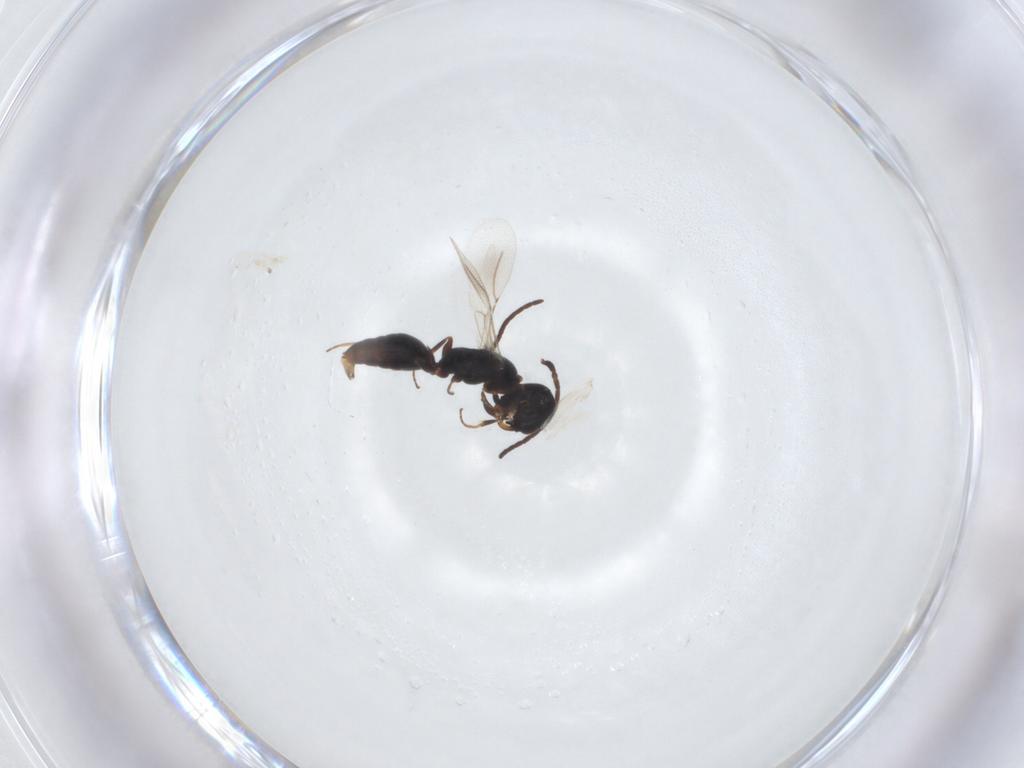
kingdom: Animalia
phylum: Arthropoda
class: Insecta
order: Hymenoptera
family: Bethylidae
